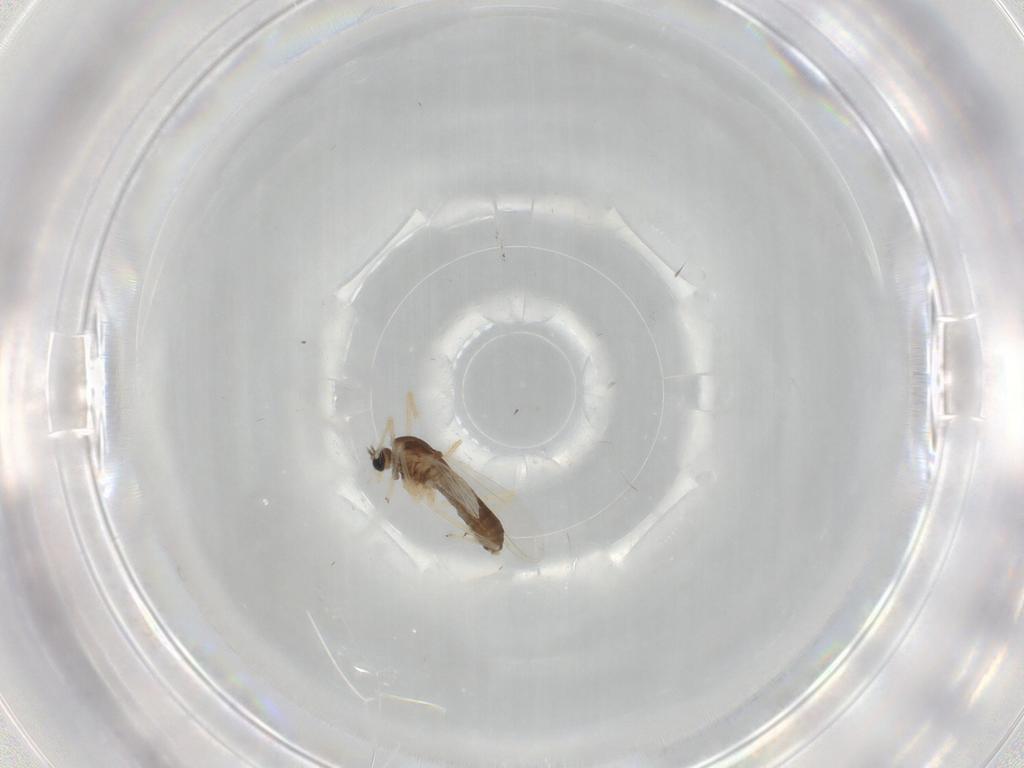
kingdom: Animalia
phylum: Arthropoda
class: Insecta
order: Diptera
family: Chironomidae
